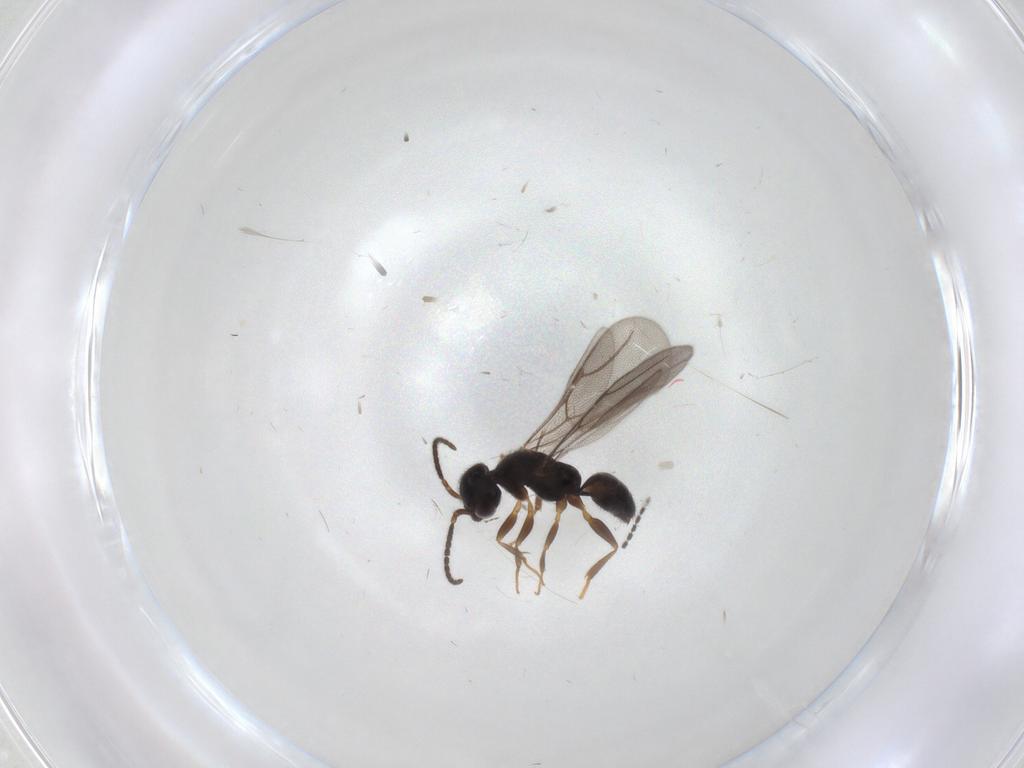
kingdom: Animalia
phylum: Arthropoda
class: Insecta
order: Hymenoptera
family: Bethylidae
